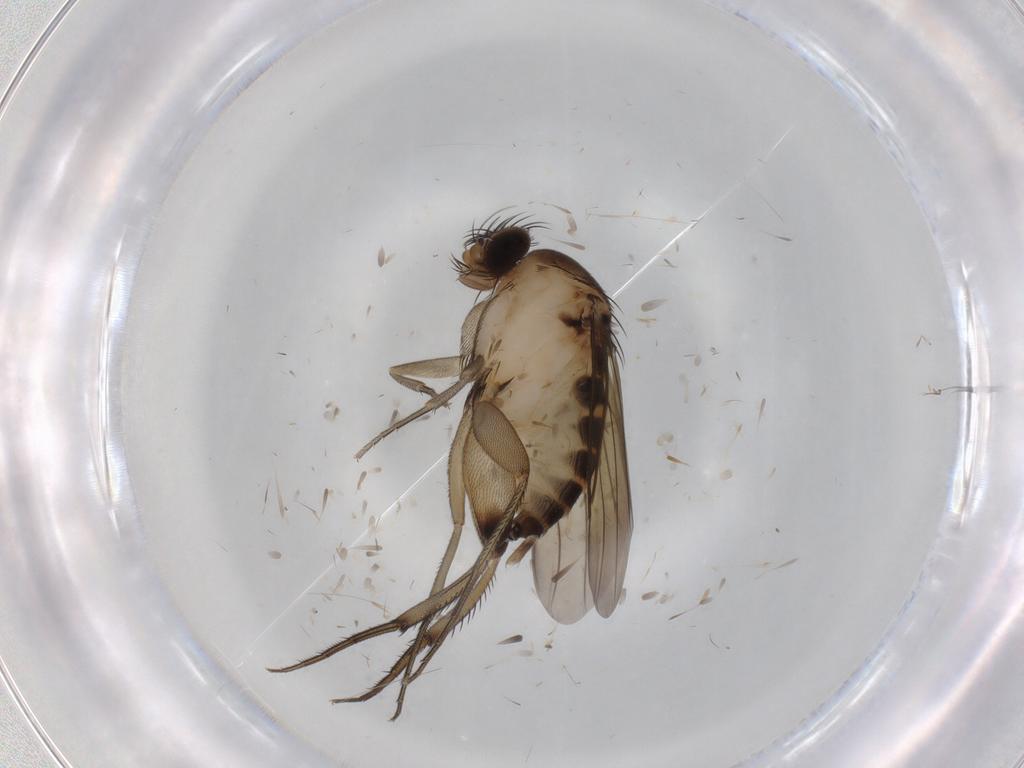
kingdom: Animalia
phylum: Arthropoda
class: Insecta
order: Diptera
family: Phoridae
